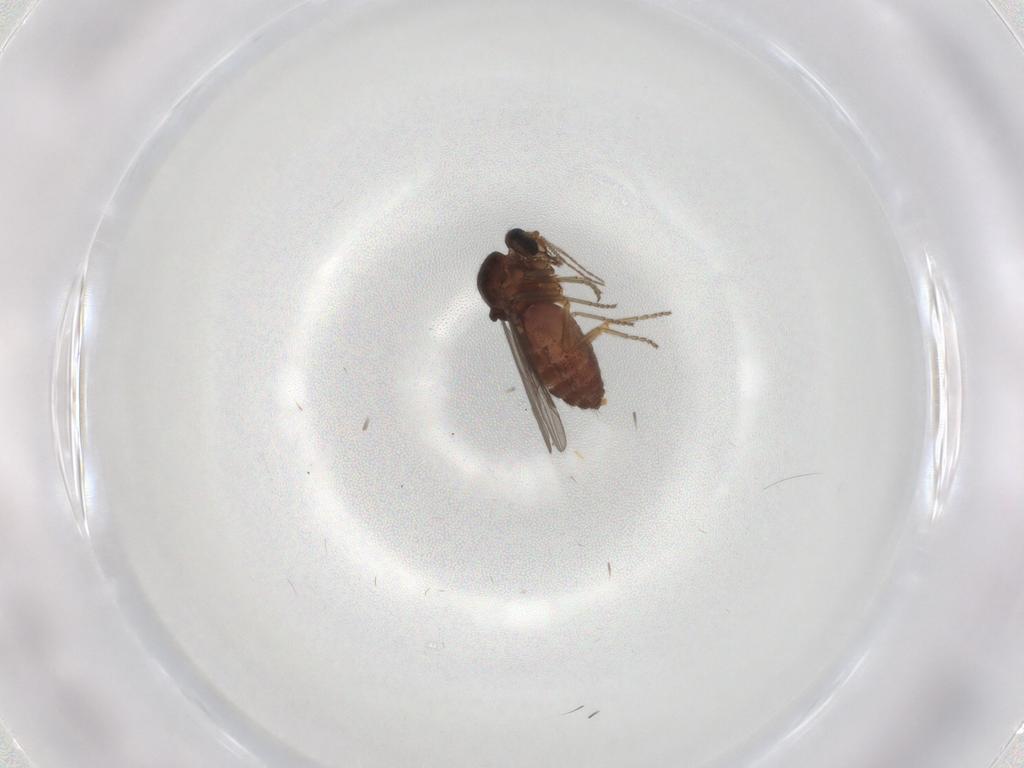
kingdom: Animalia
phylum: Arthropoda
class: Insecta
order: Diptera
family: Ceratopogonidae
